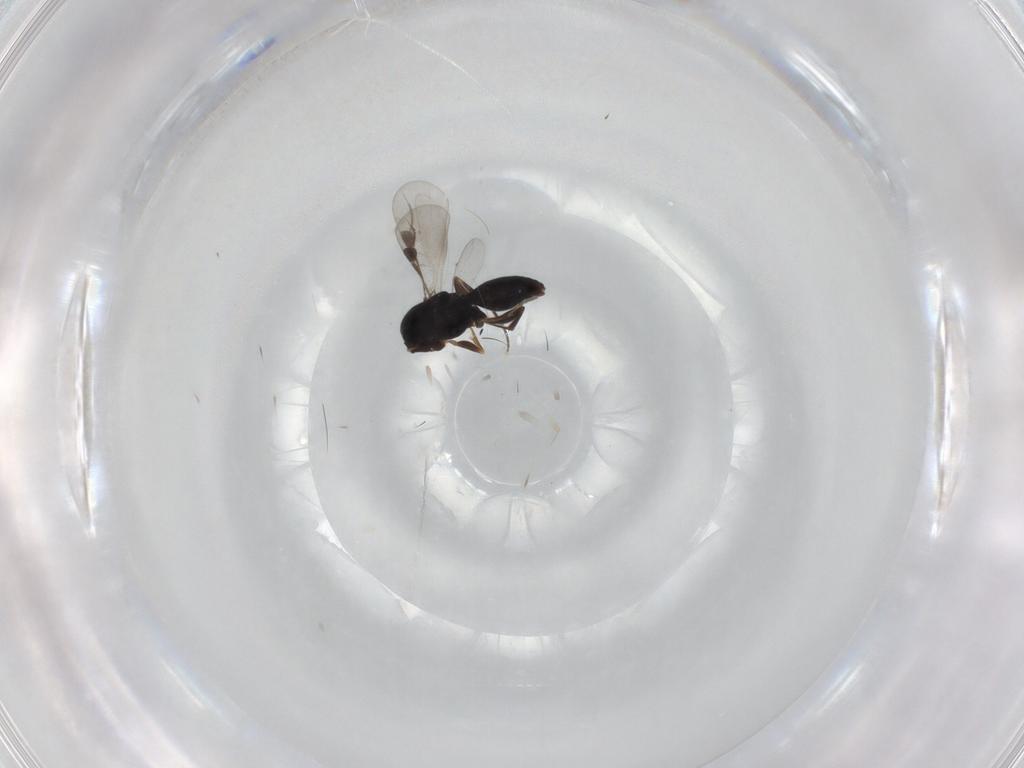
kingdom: Animalia
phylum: Arthropoda
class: Insecta
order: Hymenoptera
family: Megaspilidae
